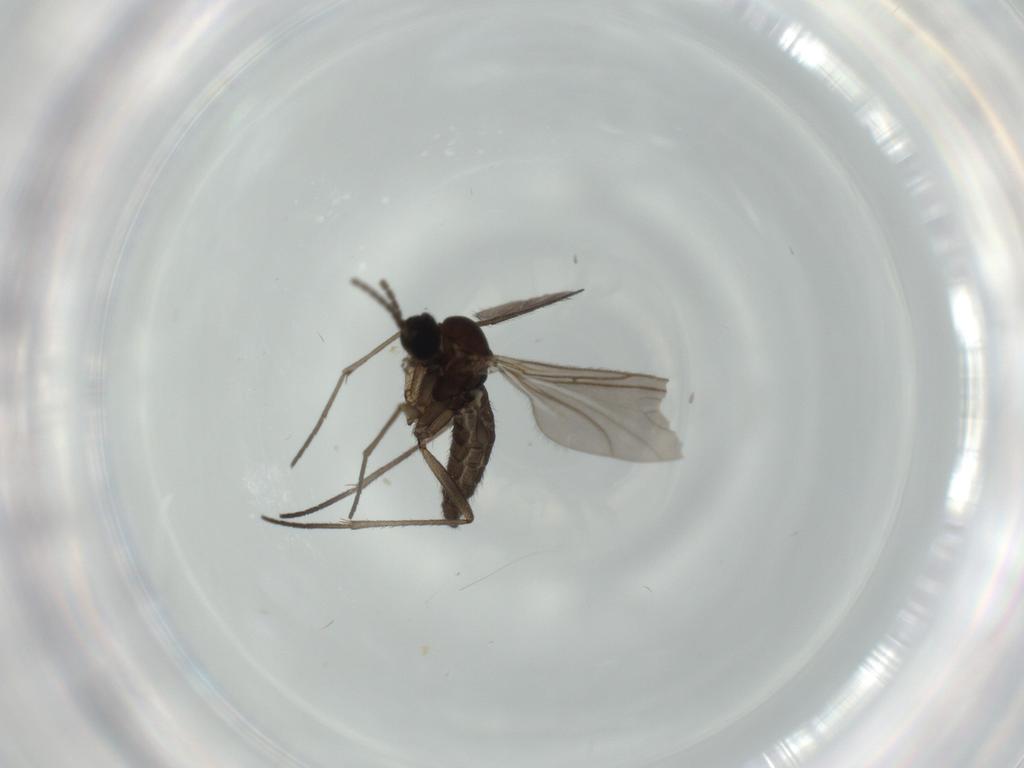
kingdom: Animalia
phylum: Arthropoda
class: Insecta
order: Diptera
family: Sciaridae
